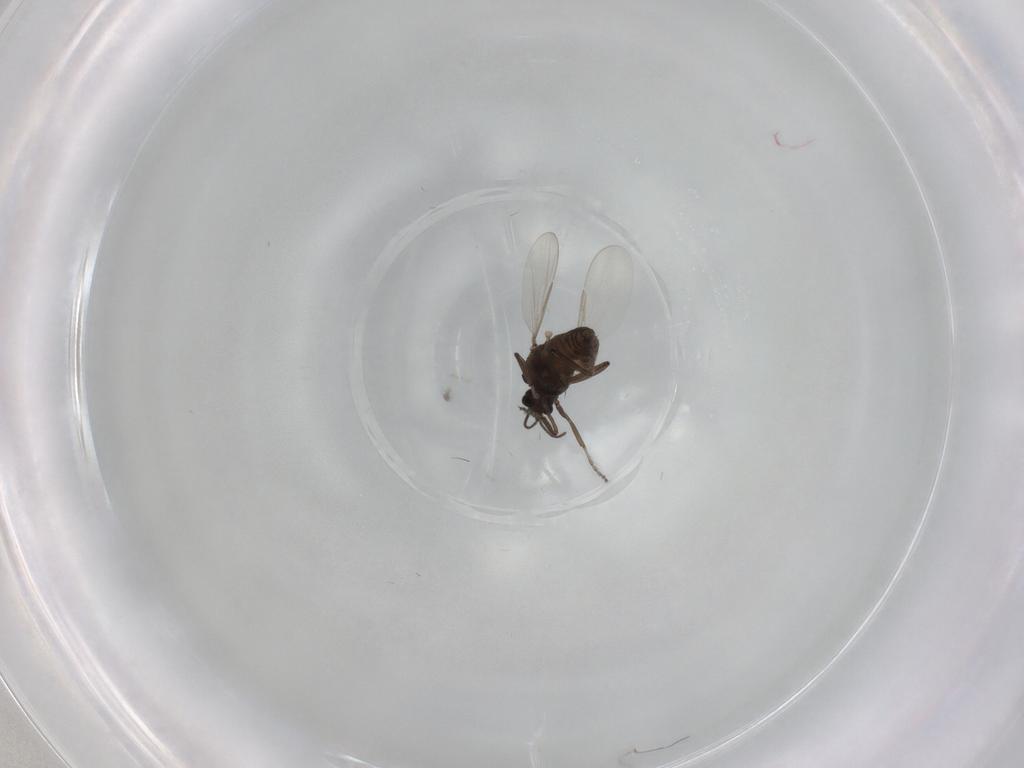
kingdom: Animalia
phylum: Arthropoda
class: Insecta
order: Diptera
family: Ceratopogonidae
